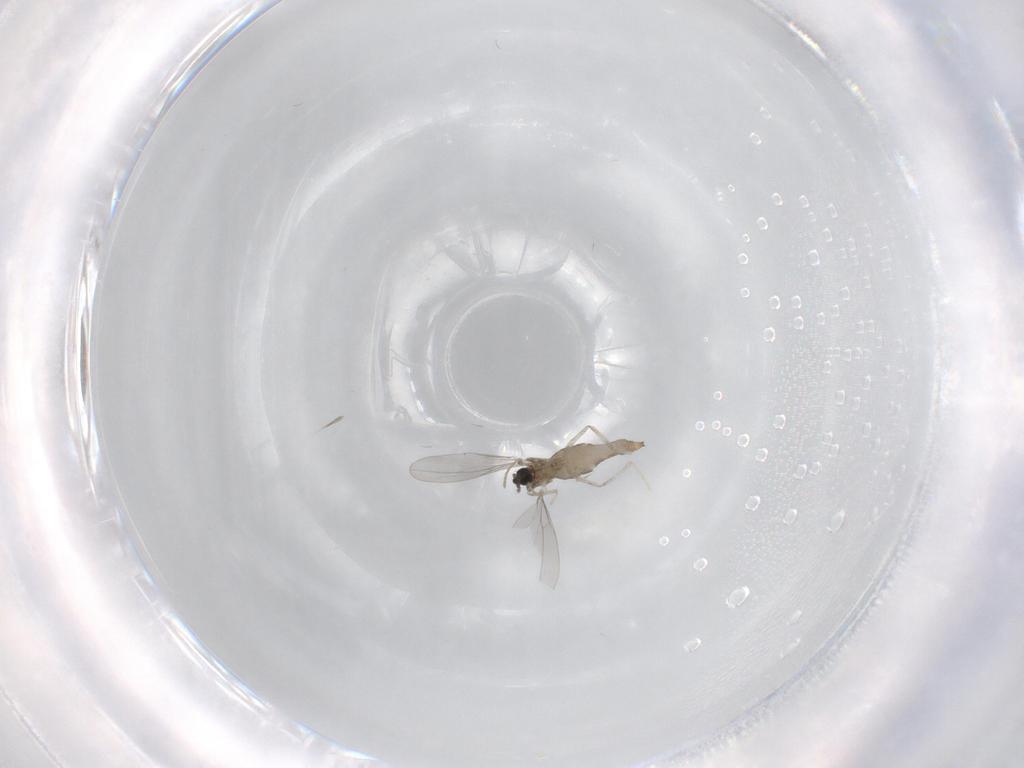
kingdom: Animalia
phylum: Arthropoda
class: Insecta
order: Diptera
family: Cecidomyiidae
